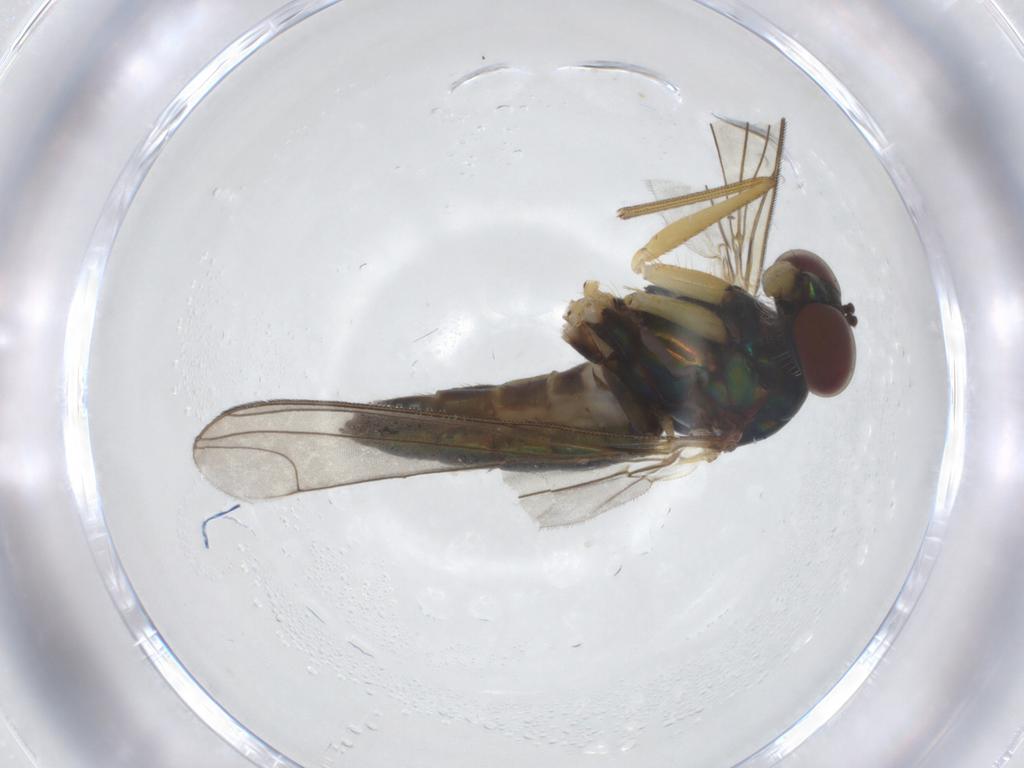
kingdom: Animalia
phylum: Arthropoda
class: Insecta
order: Diptera
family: Dolichopodidae
